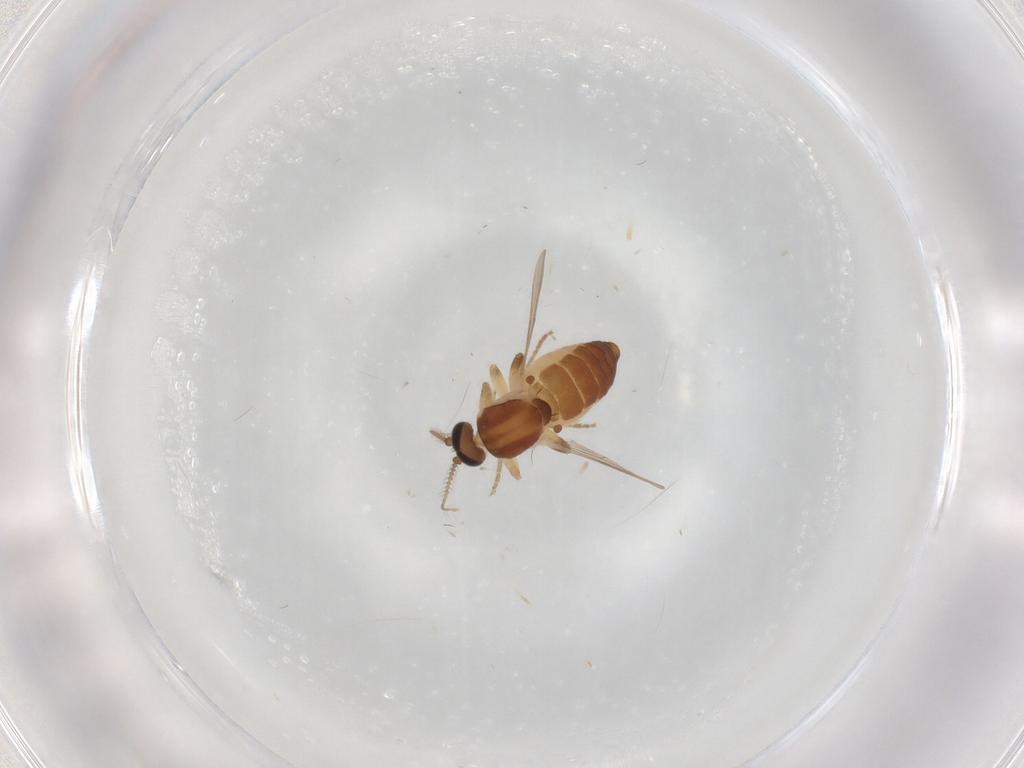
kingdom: Animalia
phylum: Arthropoda
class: Insecta
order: Diptera
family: Ceratopogonidae
